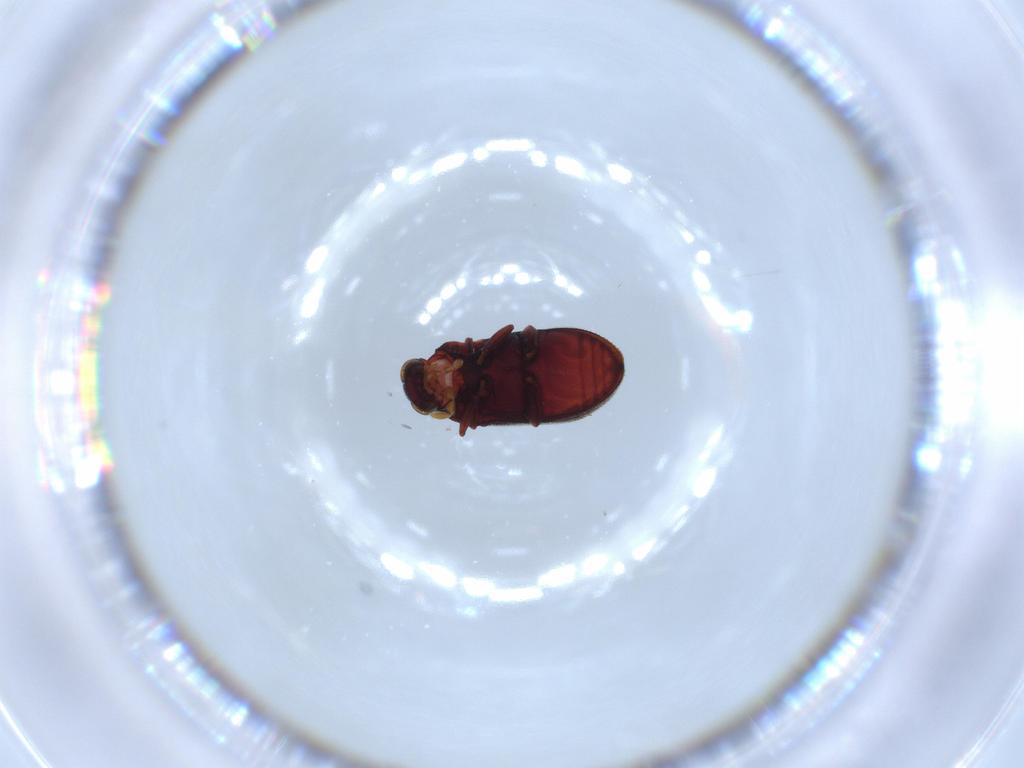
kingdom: Animalia
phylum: Arthropoda
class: Insecta
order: Coleoptera
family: Anobiidae
